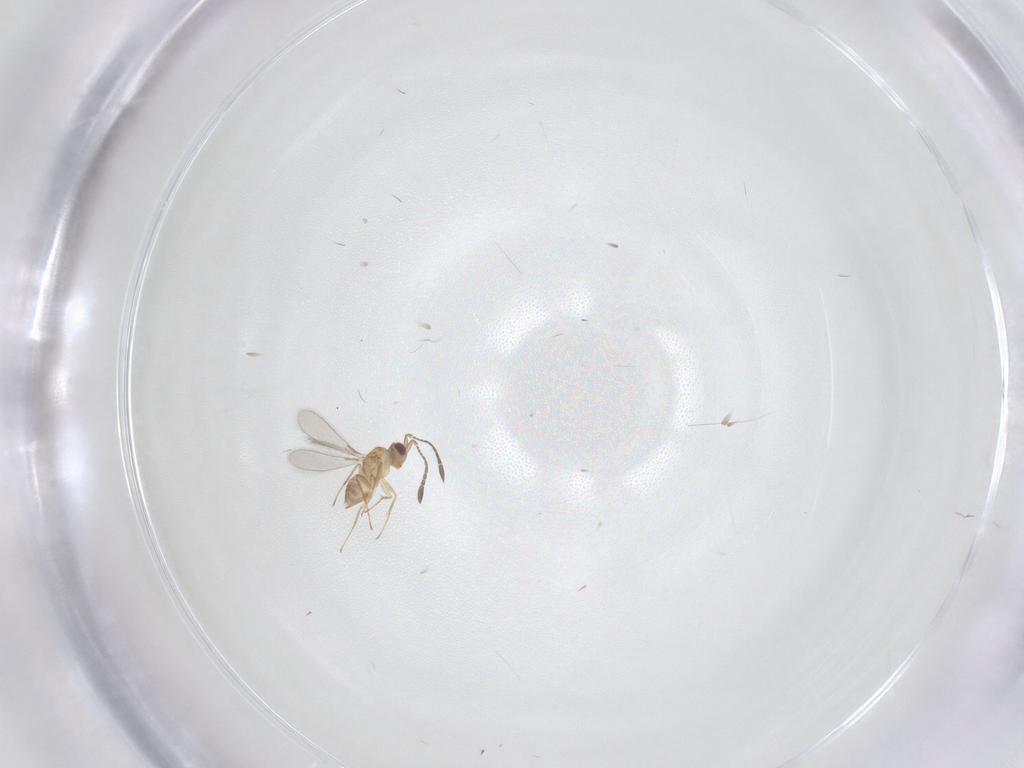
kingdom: Animalia
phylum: Arthropoda
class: Insecta
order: Hymenoptera
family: Mymaridae
